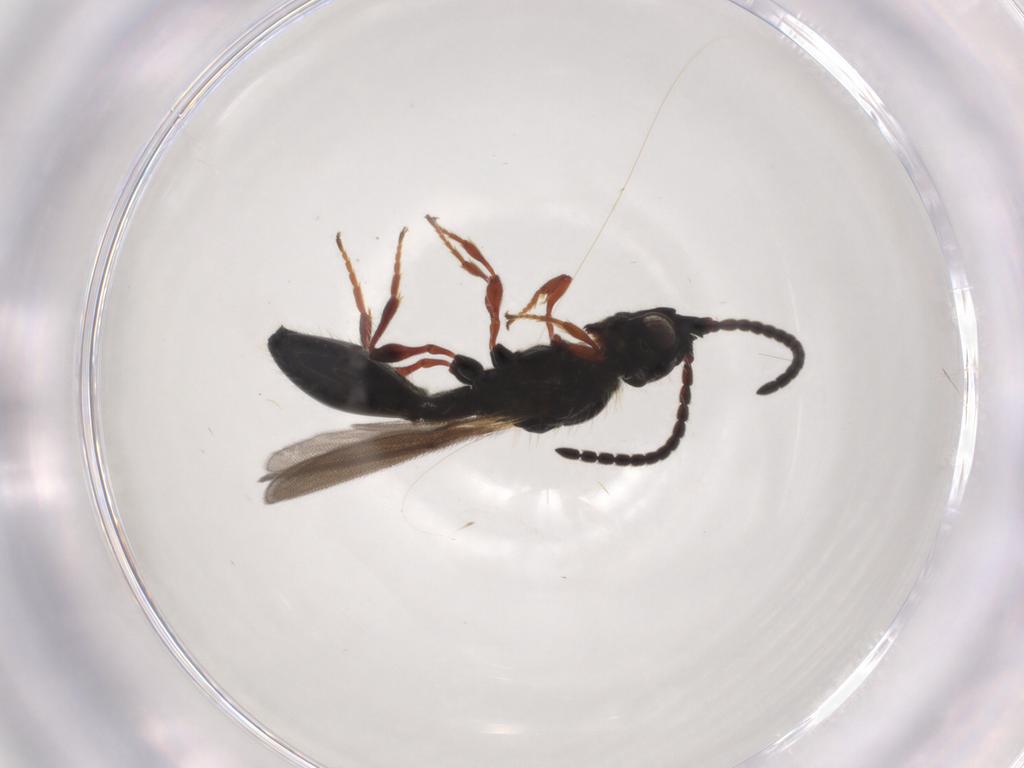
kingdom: Animalia
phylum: Arthropoda
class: Insecta
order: Hymenoptera
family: Diapriidae
